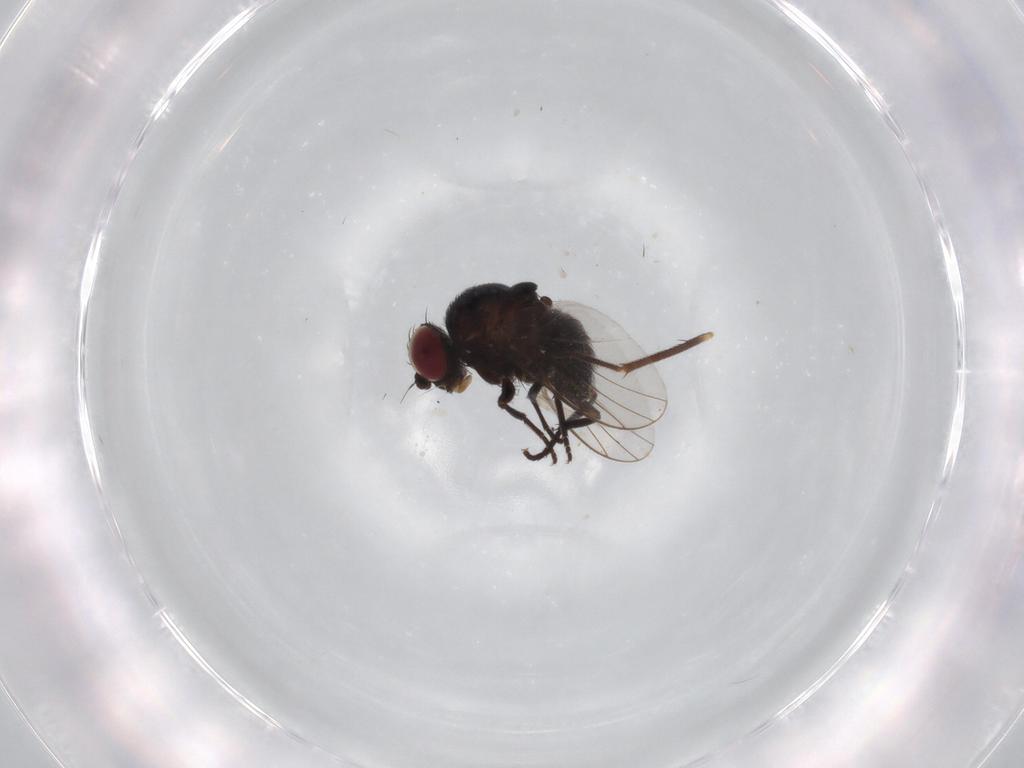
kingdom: Animalia
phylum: Arthropoda
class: Insecta
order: Diptera
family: Dolichopodidae
